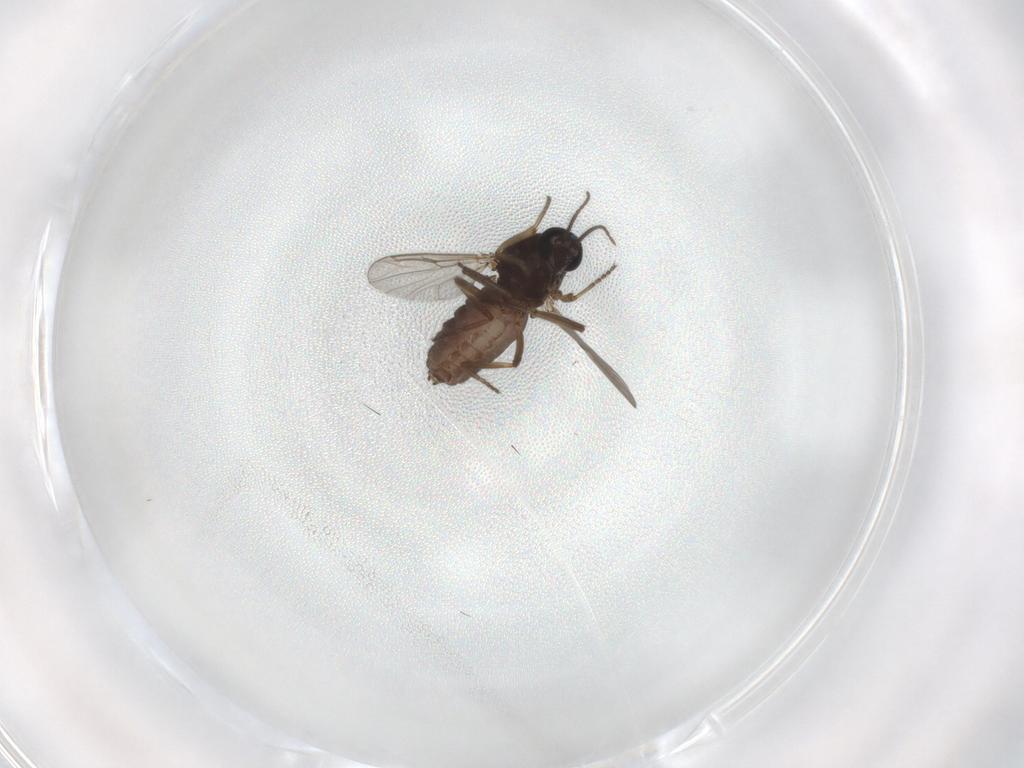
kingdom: Animalia
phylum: Arthropoda
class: Insecta
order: Diptera
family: Ceratopogonidae
